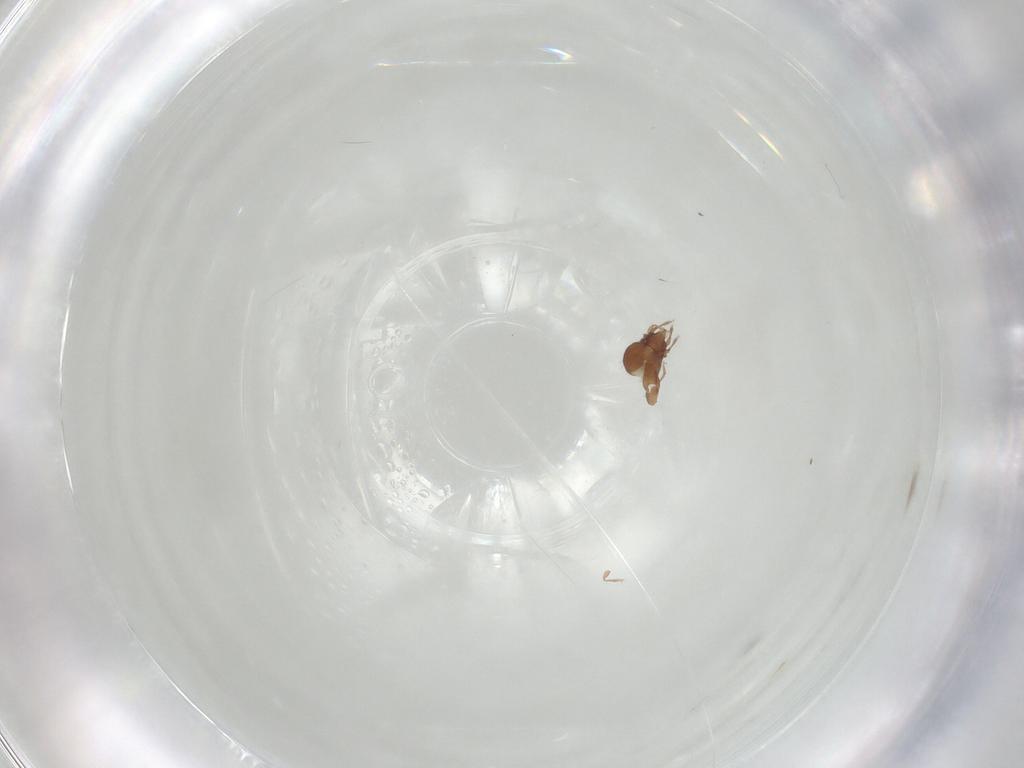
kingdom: Animalia
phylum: Arthropoda
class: Arachnida
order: Sarcoptiformes
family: Oribatulidae
